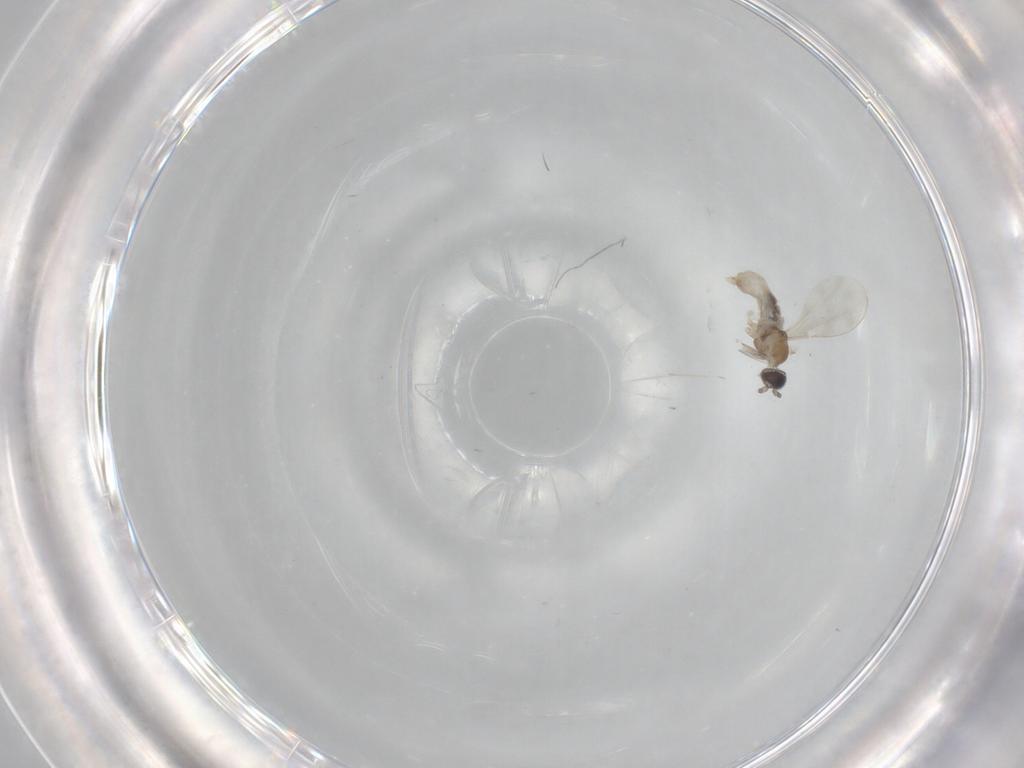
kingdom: Animalia
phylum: Arthropoda
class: Insecta
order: Diptera
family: Cecidomyiidae
